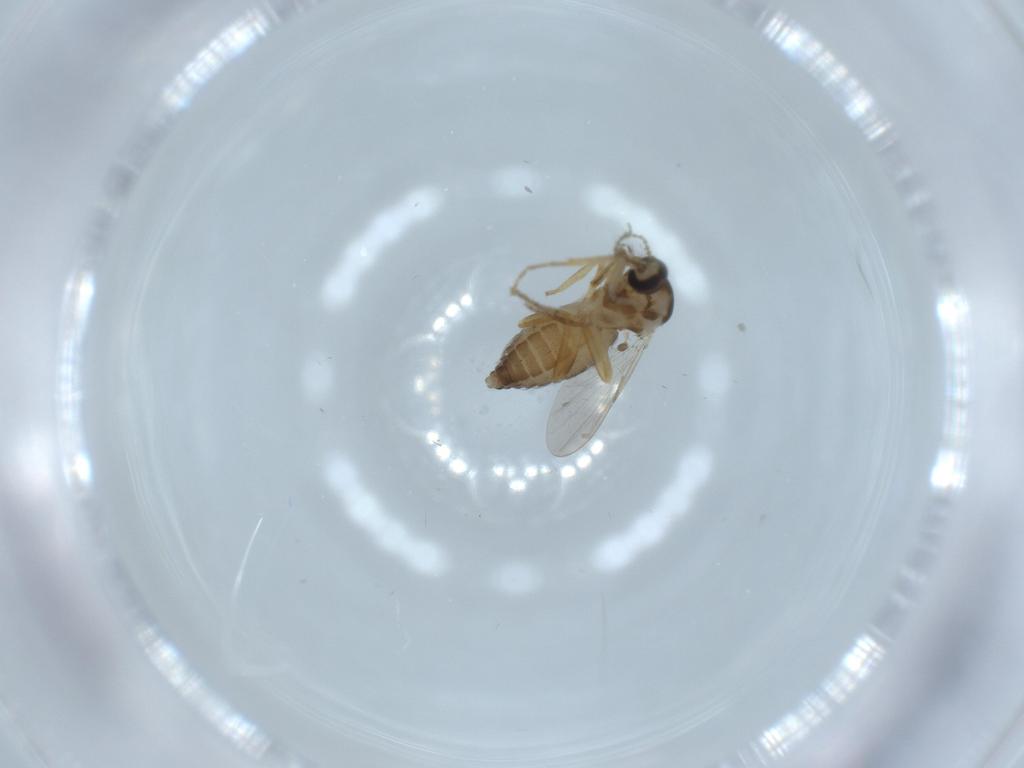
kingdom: Animalia
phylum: Arthropoda
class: Insecta
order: Diptera
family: Ceratopogonidae
